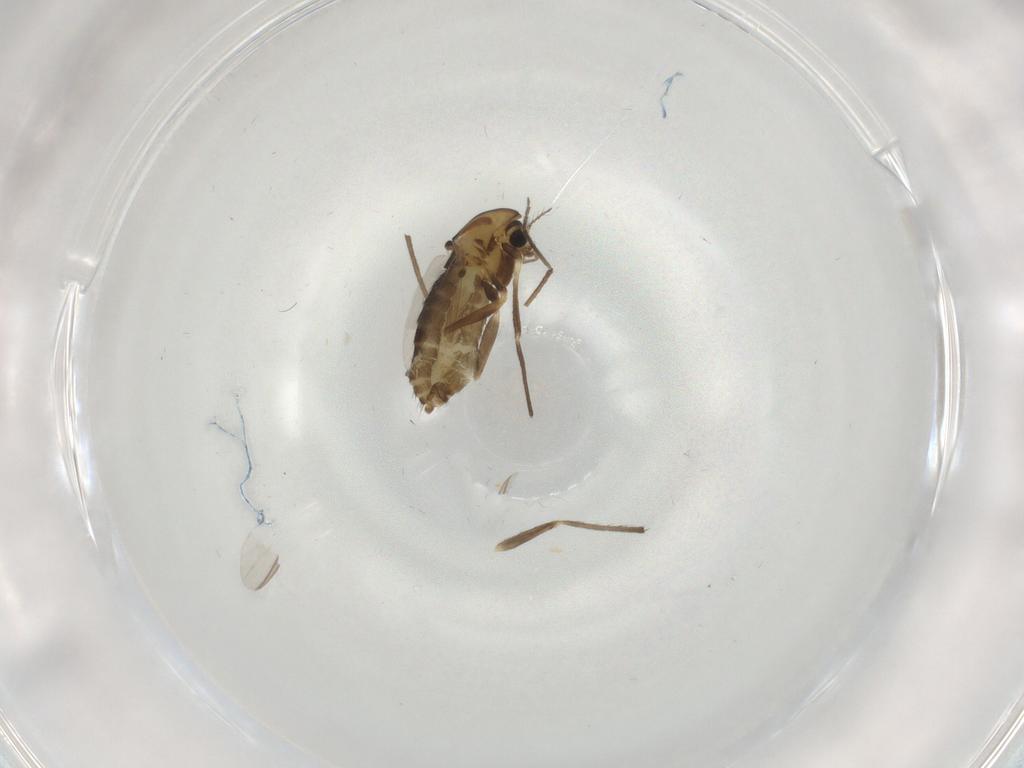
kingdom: Animalia
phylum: Arthropoda
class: Insecta
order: Diptera
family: Chironomidae
